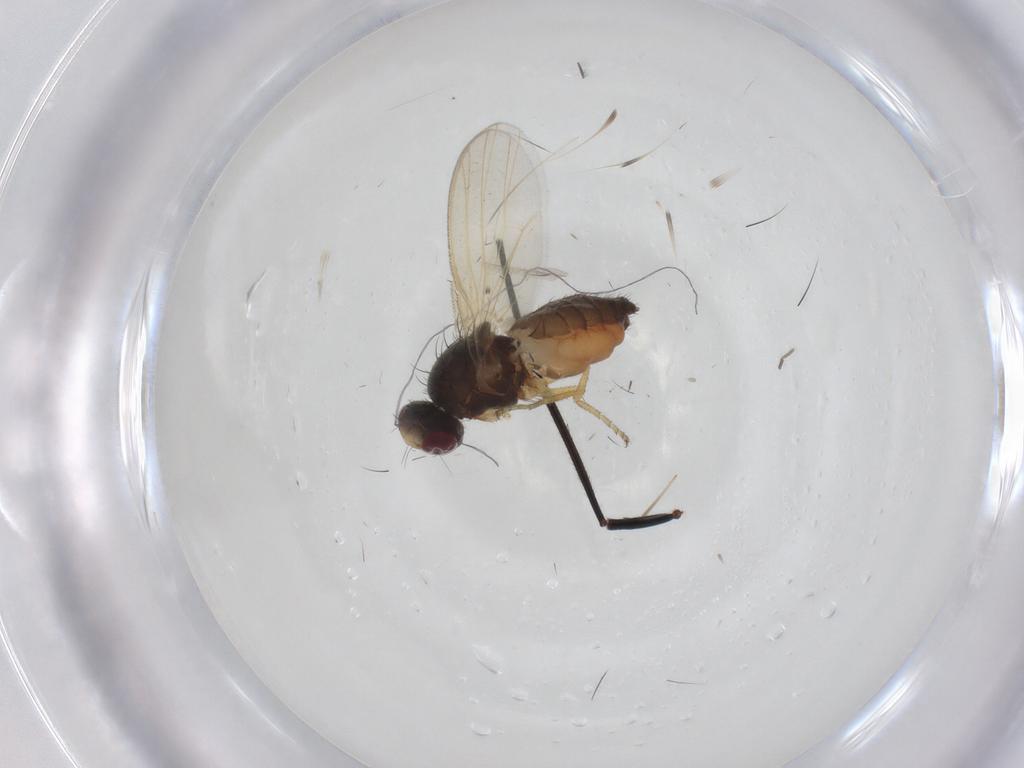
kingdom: Animalia
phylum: Arthropoda
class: Insecta
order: Diptera
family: Heleomyzidae
